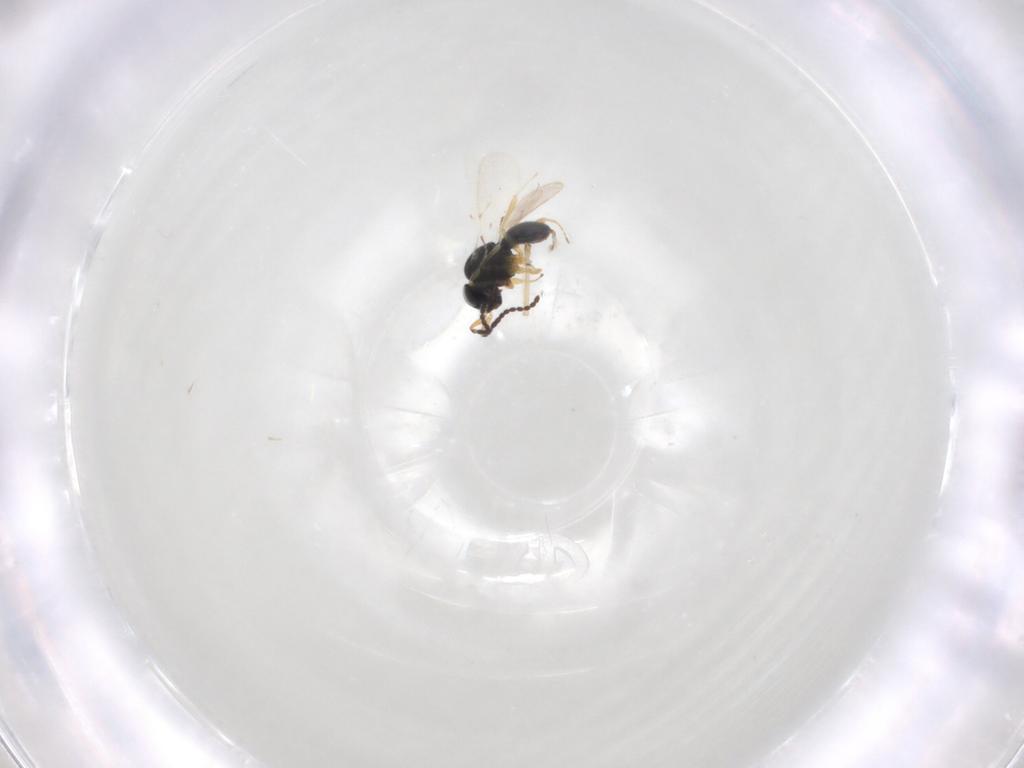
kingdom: Animalia
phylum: Arthropoda
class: Insecta
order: Hymenoptera
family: Scelionidae
